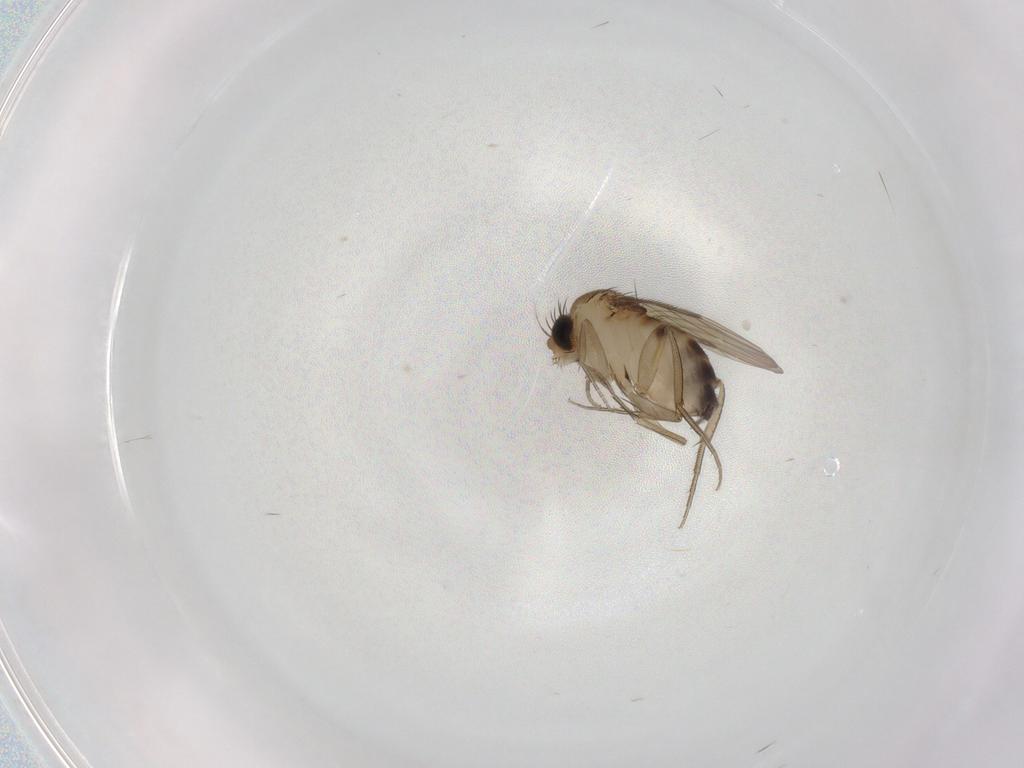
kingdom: Animalia
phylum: Arthropoda
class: Insecta
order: Diptera
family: Phoridae
